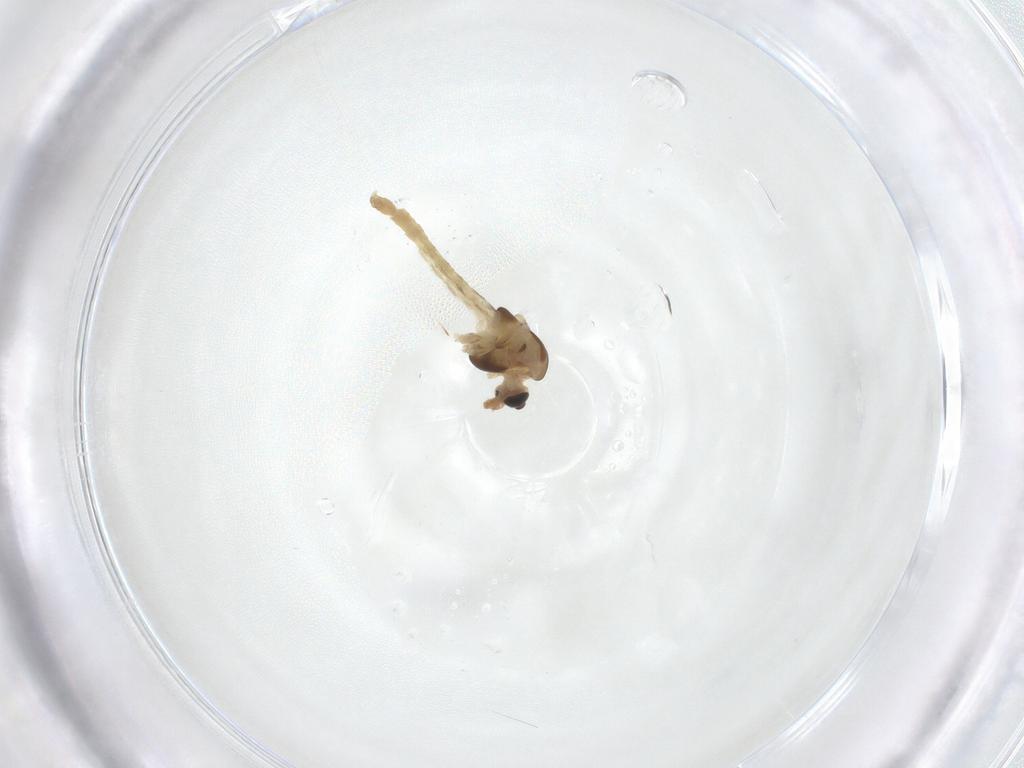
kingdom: Animalia
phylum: Arthropoda
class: Insecta
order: Diptera
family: Chironomidae
